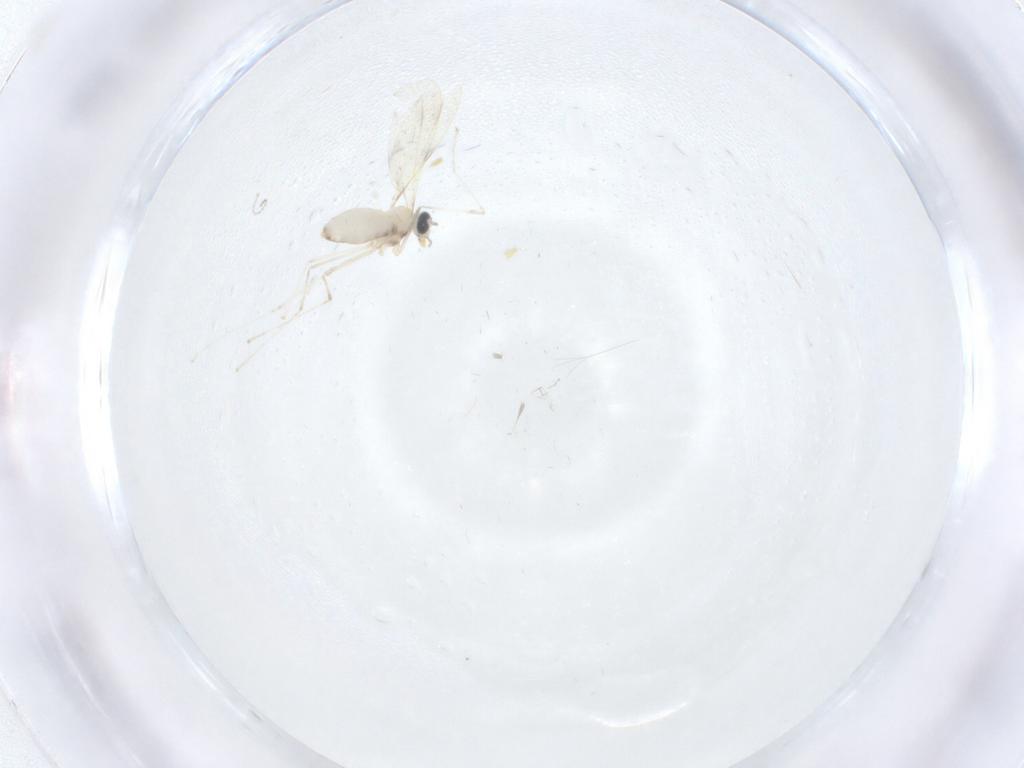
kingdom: Animalia
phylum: Arthropoda
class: Insecta
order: Diptera
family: Cecidomyiidae
